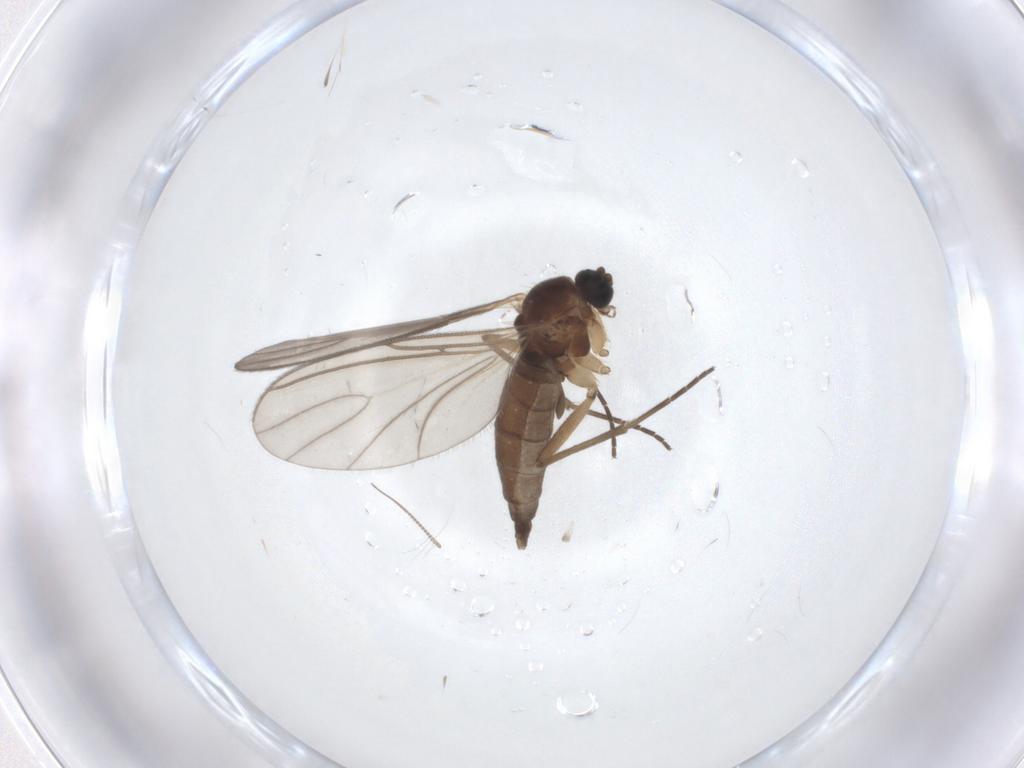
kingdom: Animalia
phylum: Arthropoda
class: Insecta
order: Diptera
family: Sciaridae
